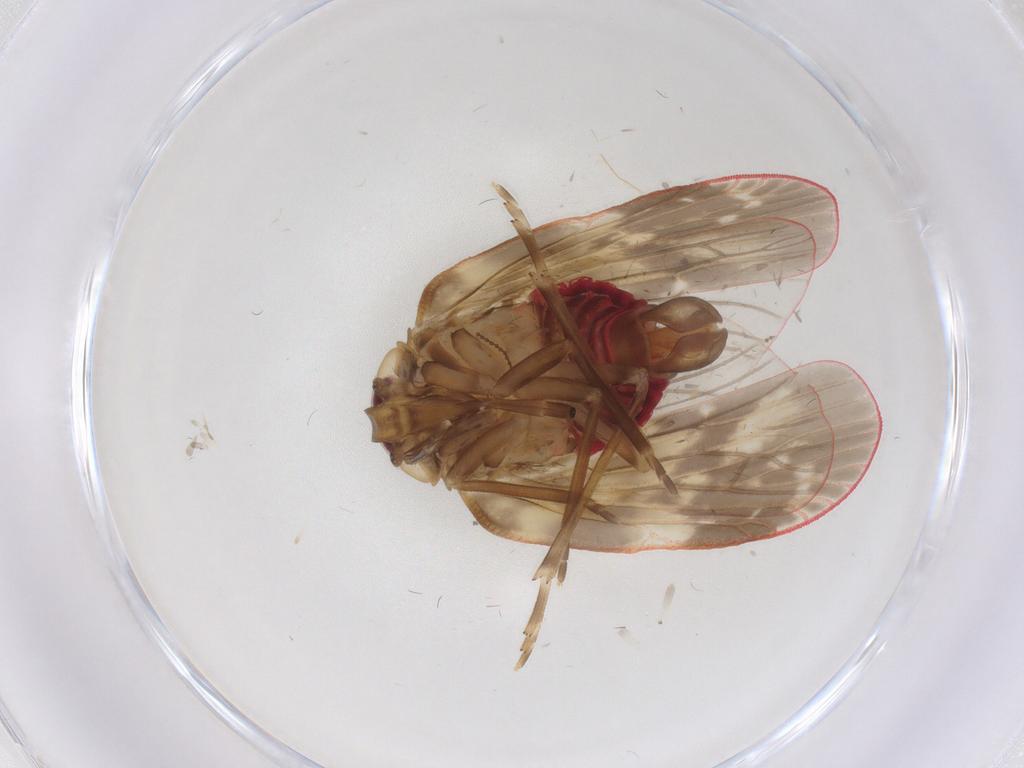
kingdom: Animalia
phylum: Arthropoda
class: Insecta
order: Hemiptera
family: Achilidae
